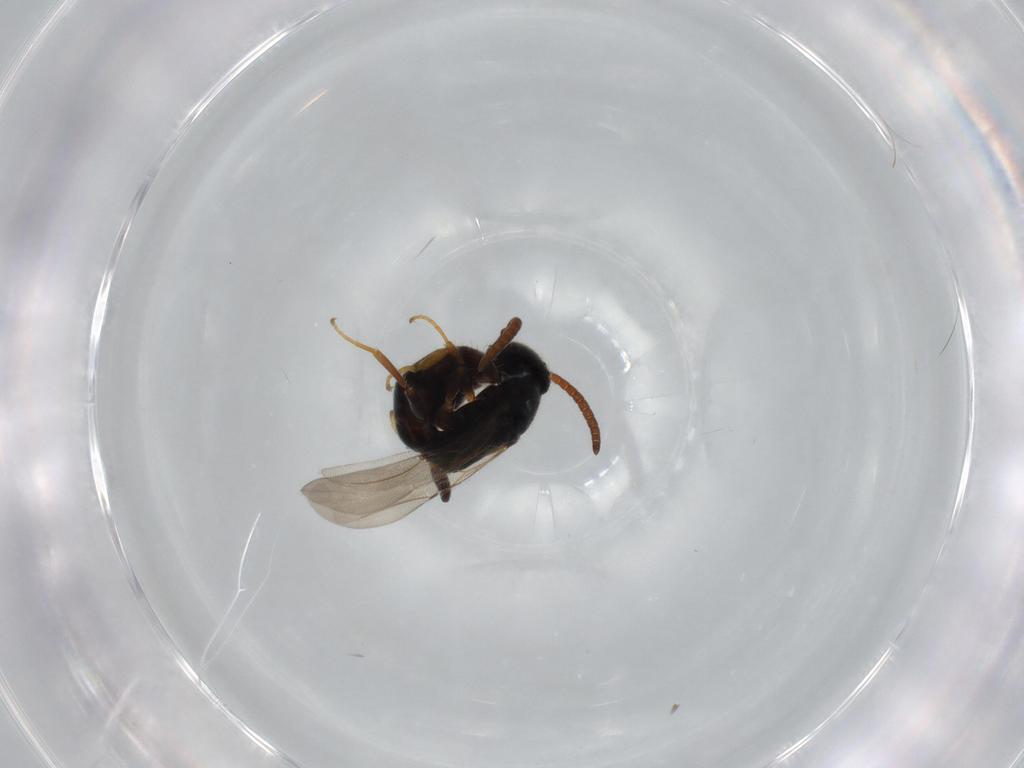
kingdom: Animalia
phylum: Arthropoda
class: Insecta
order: Hymenoptera
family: Bethylidae
